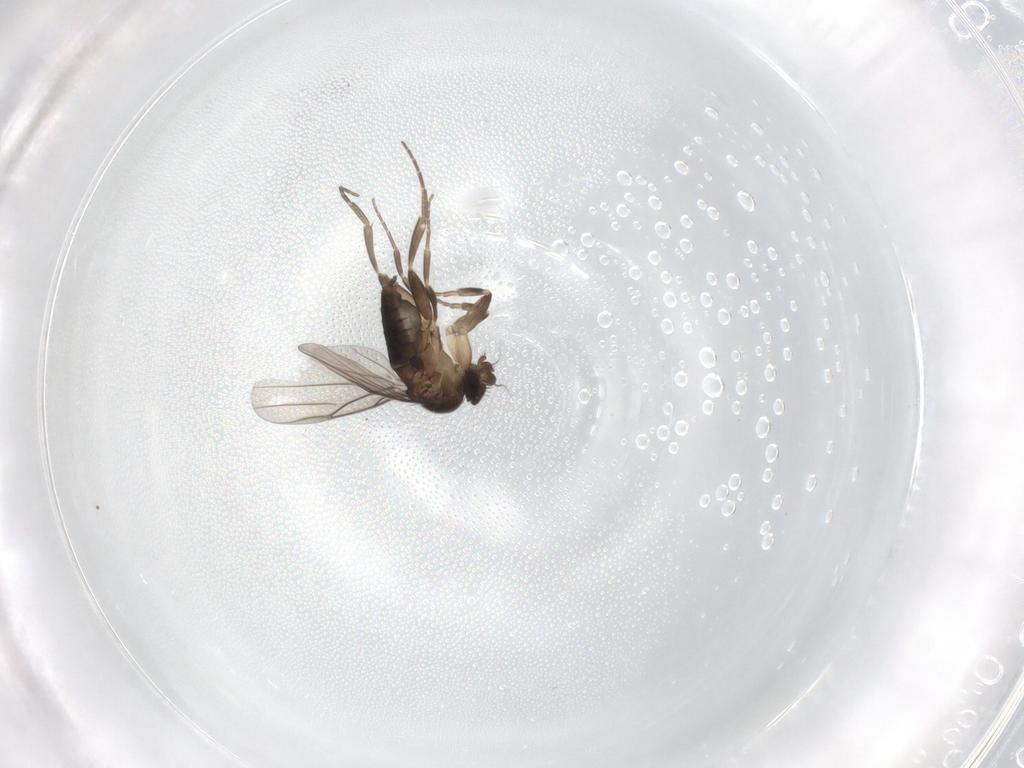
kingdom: Animalia
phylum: Arthropoda
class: Insecta
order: Diptera
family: Phoridae
